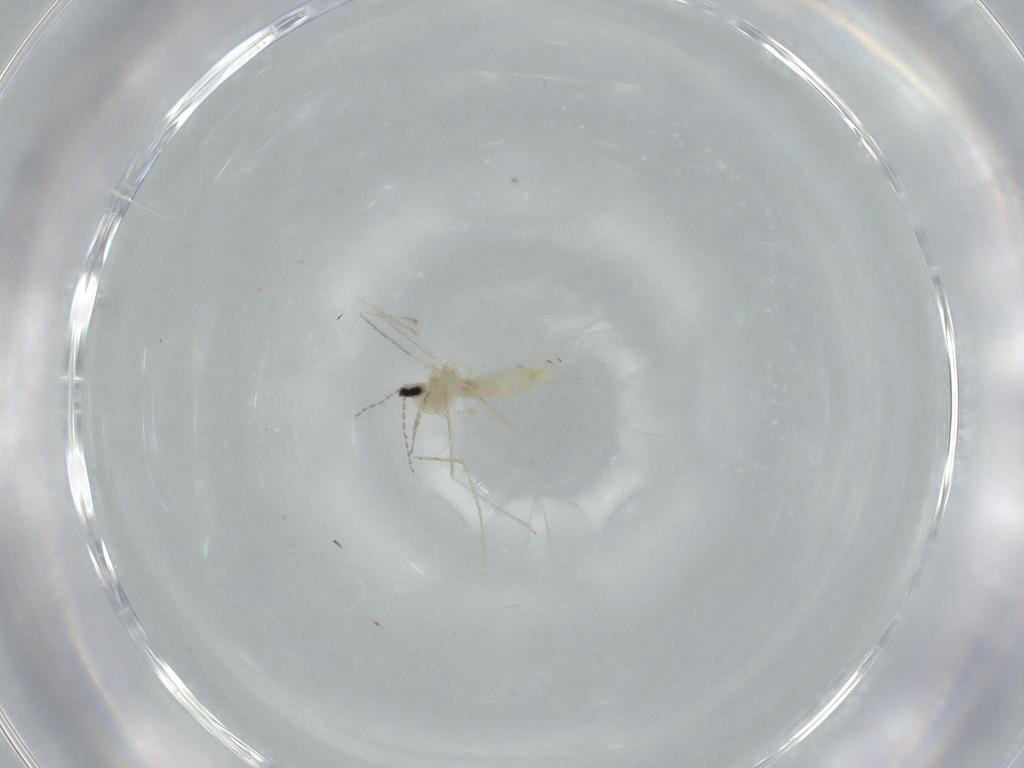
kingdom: Animalia
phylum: Arthropoda
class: Insecta
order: Diptera
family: Cecidomyiidae
